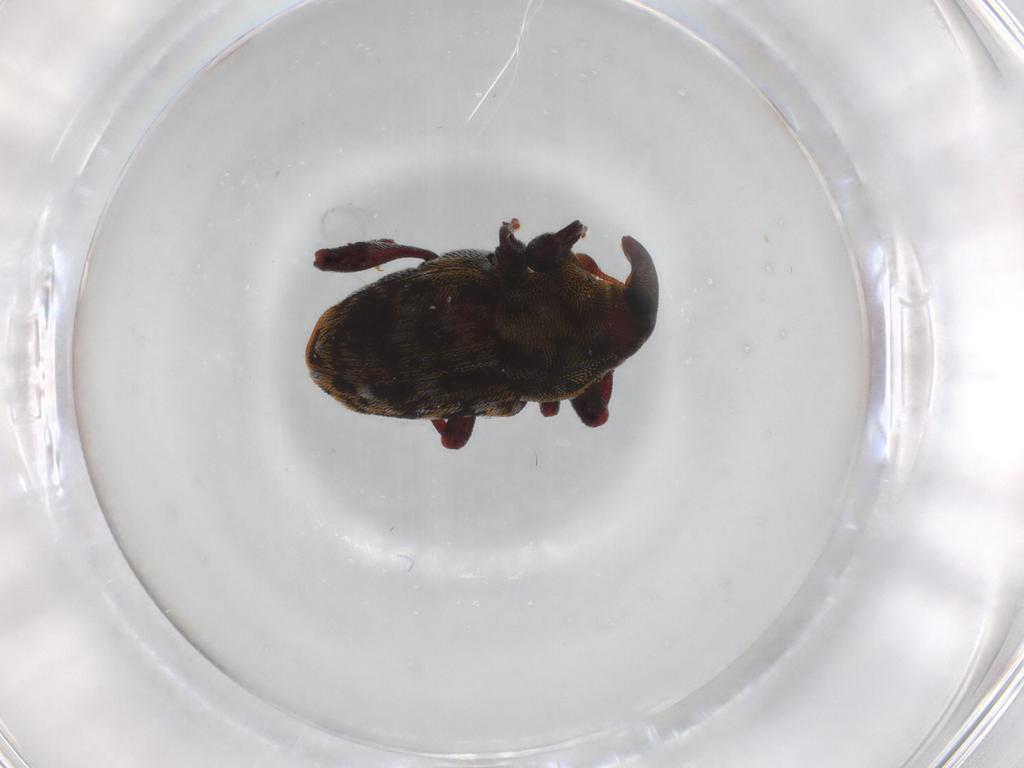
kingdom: Animalia
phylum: Arthropoda
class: Insecta
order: Coleoptera
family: Curculionidae
